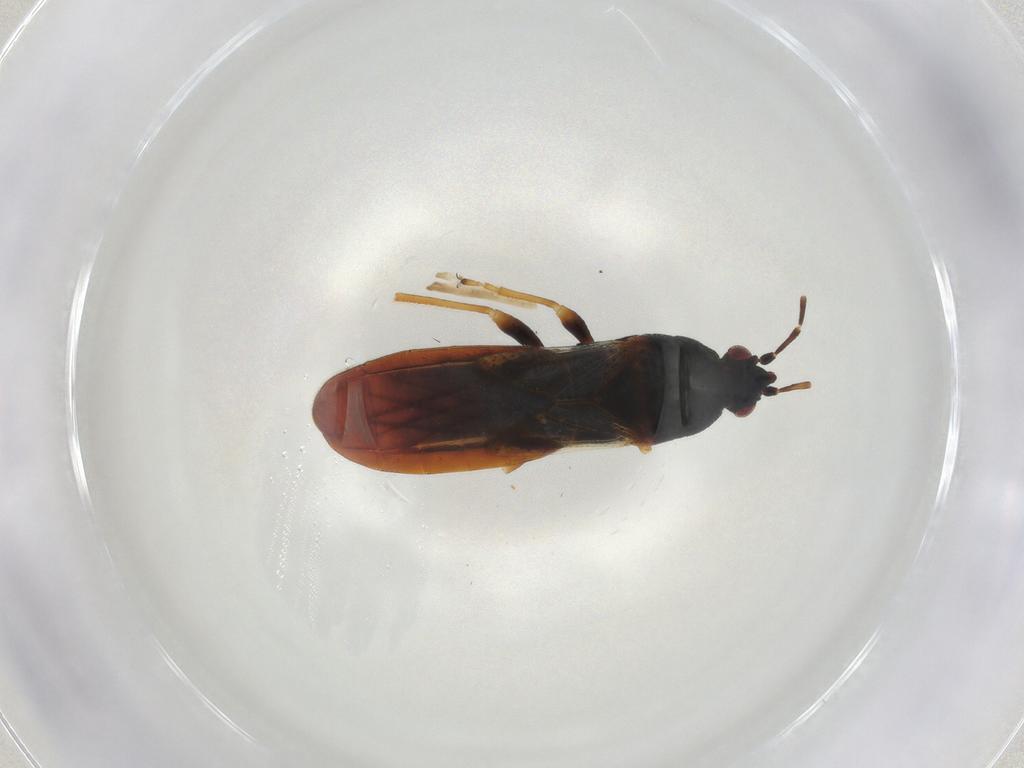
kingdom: Animalia
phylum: Arthropoda
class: Insecta
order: Hemiptera
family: Blissidae
